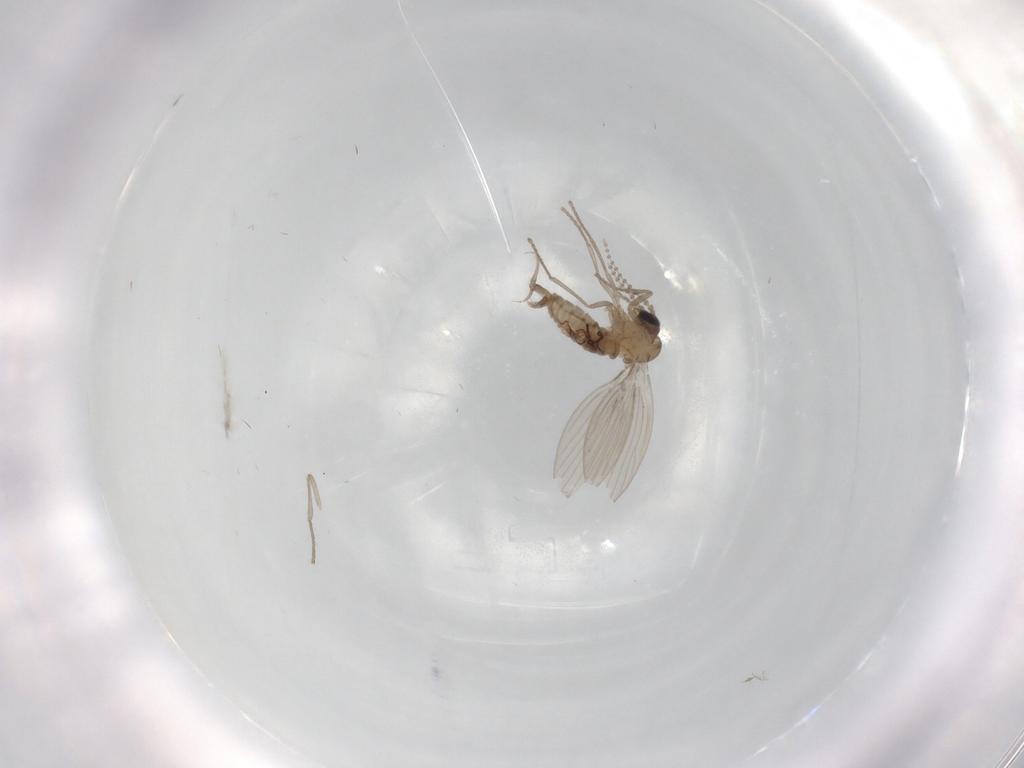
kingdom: Animalia
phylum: Arthropoda
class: Insecta
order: Diptera
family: Psychodidae
